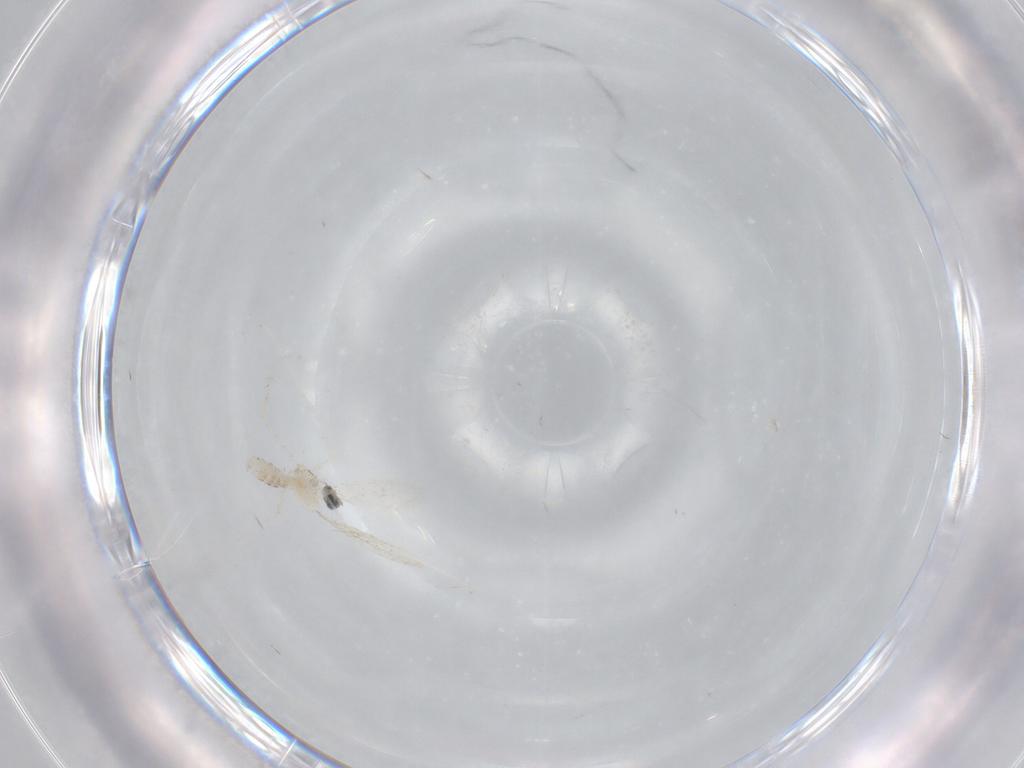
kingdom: Animalia
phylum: Arthropoda
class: Insecta
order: Diptera
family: Cecidomyiidae
